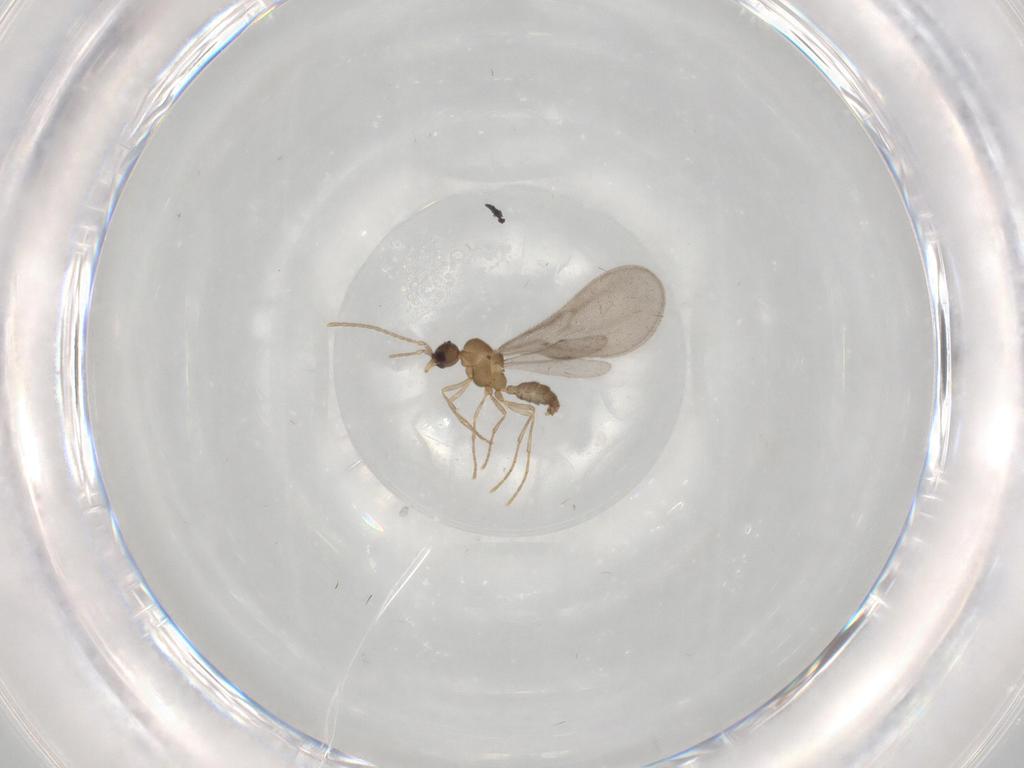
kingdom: Animalia
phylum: Arthropoda
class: Insecta
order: Hymenoptera
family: Formicidae
